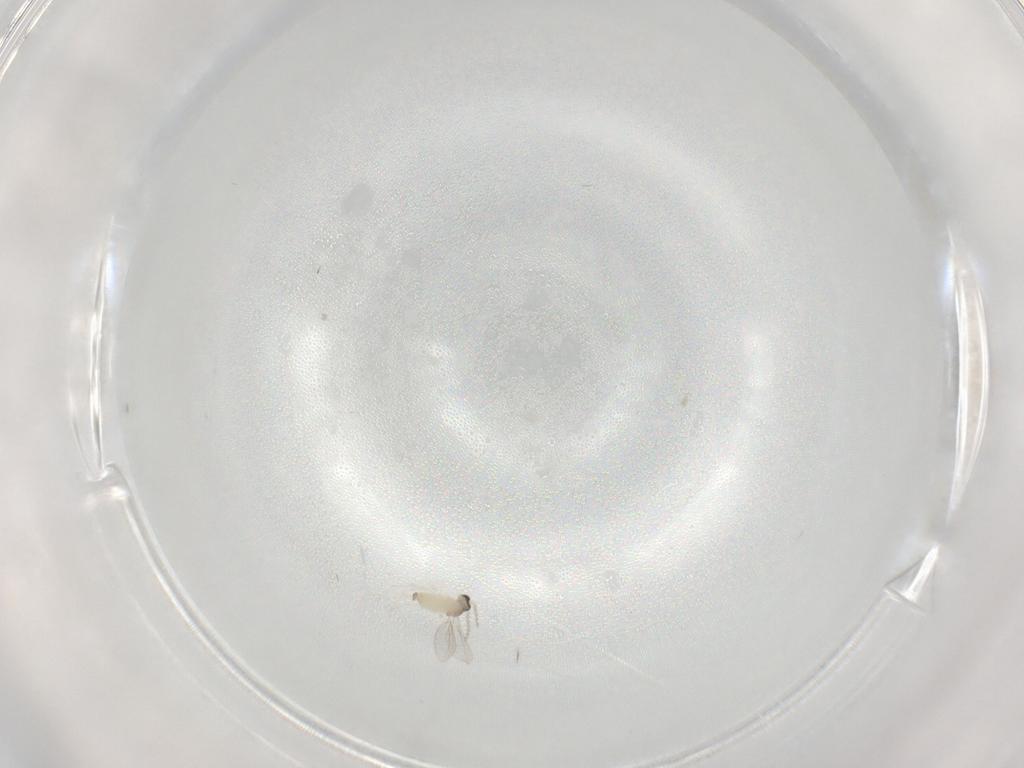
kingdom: Animalia
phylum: Arthropoda
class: Insecta
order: Diptera
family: Cecidomyiidae
